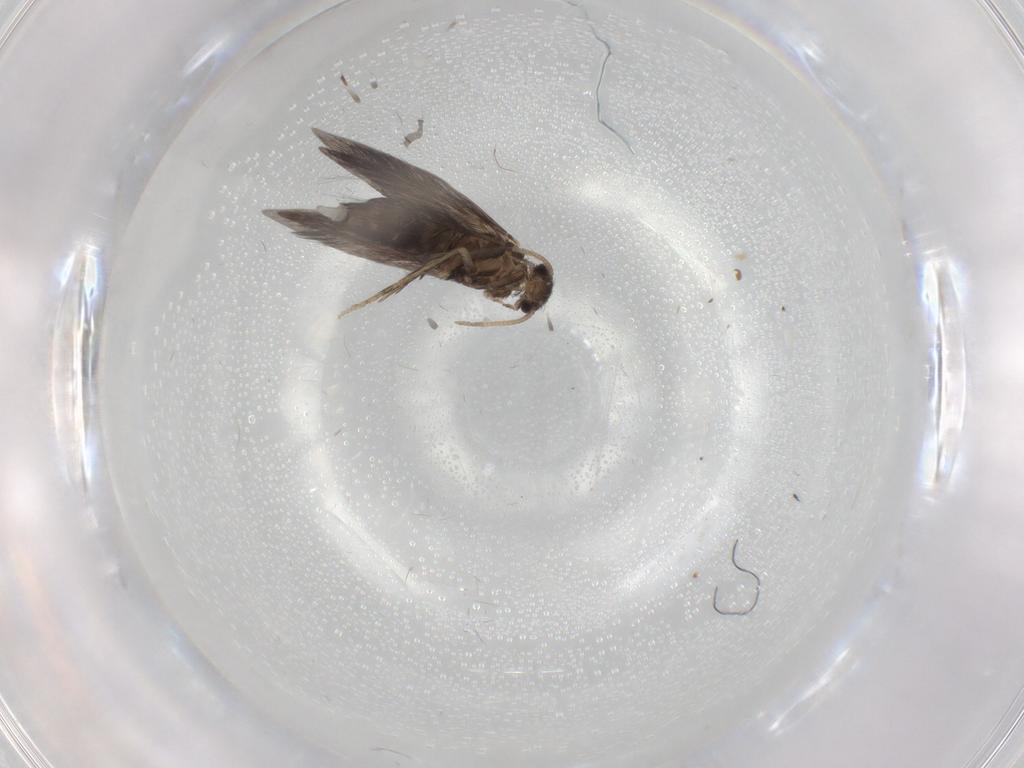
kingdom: Animalia
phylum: Arthropoda
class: Insecta
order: Trichoptera
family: Hydroptilidae
